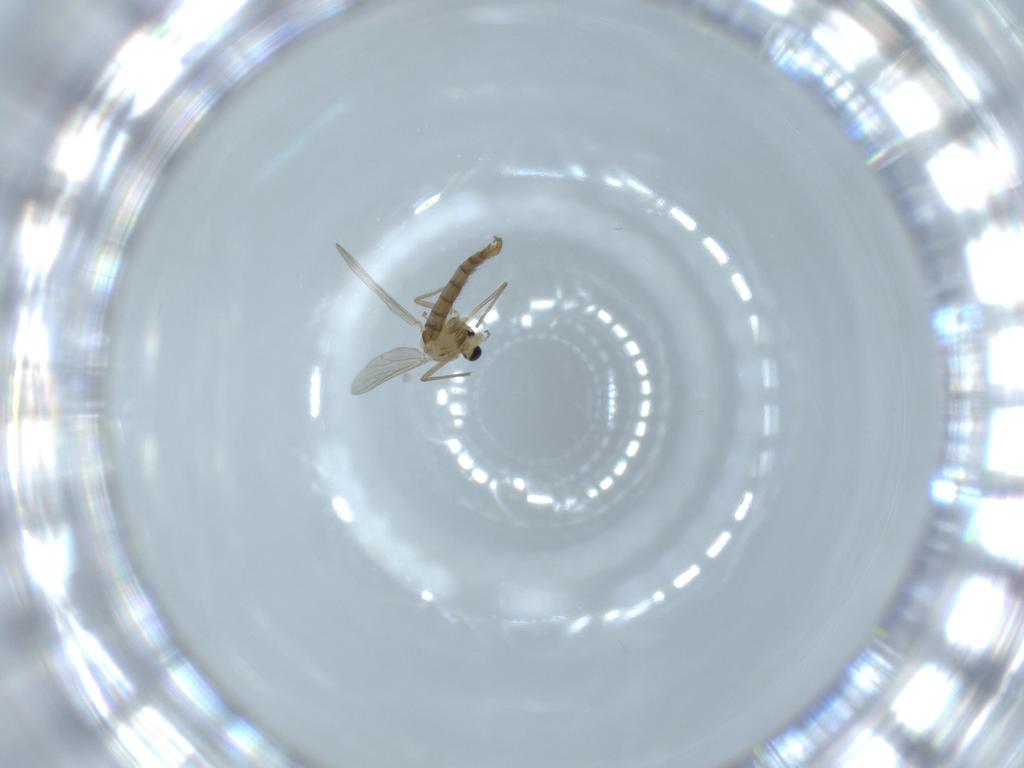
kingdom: Animalia
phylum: Arthropoda
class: Insecta
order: Diptera
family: Chironomidae
